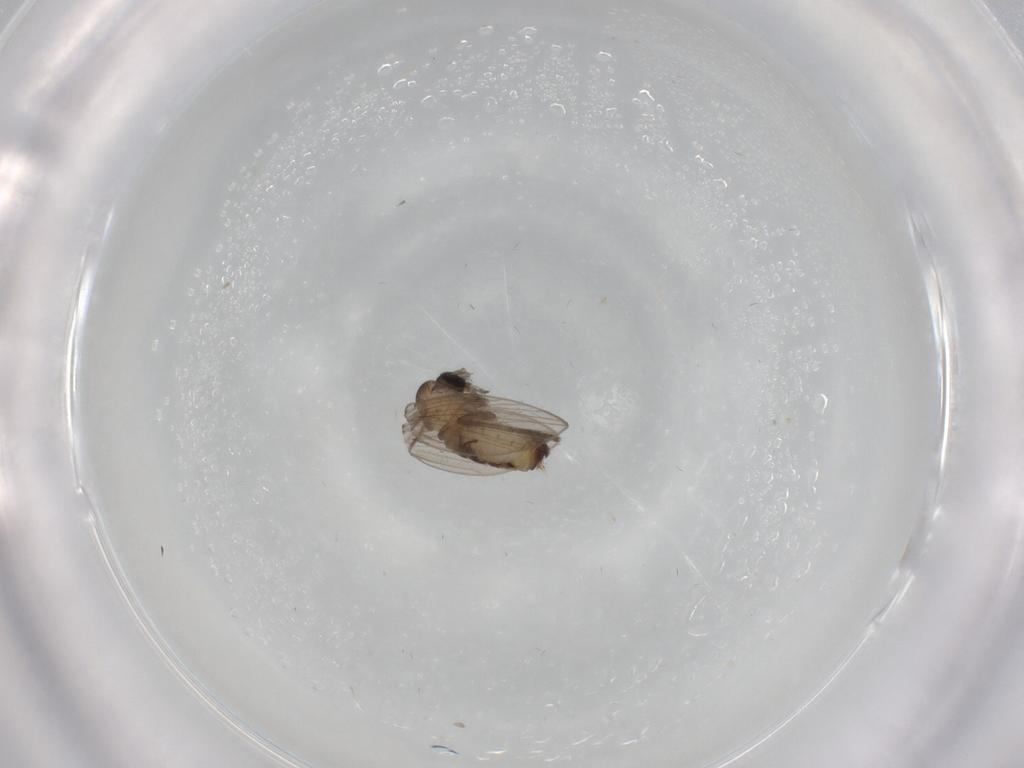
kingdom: Animalia
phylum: Arthropoda
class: Insecta
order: Diptera
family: Psychodidae
